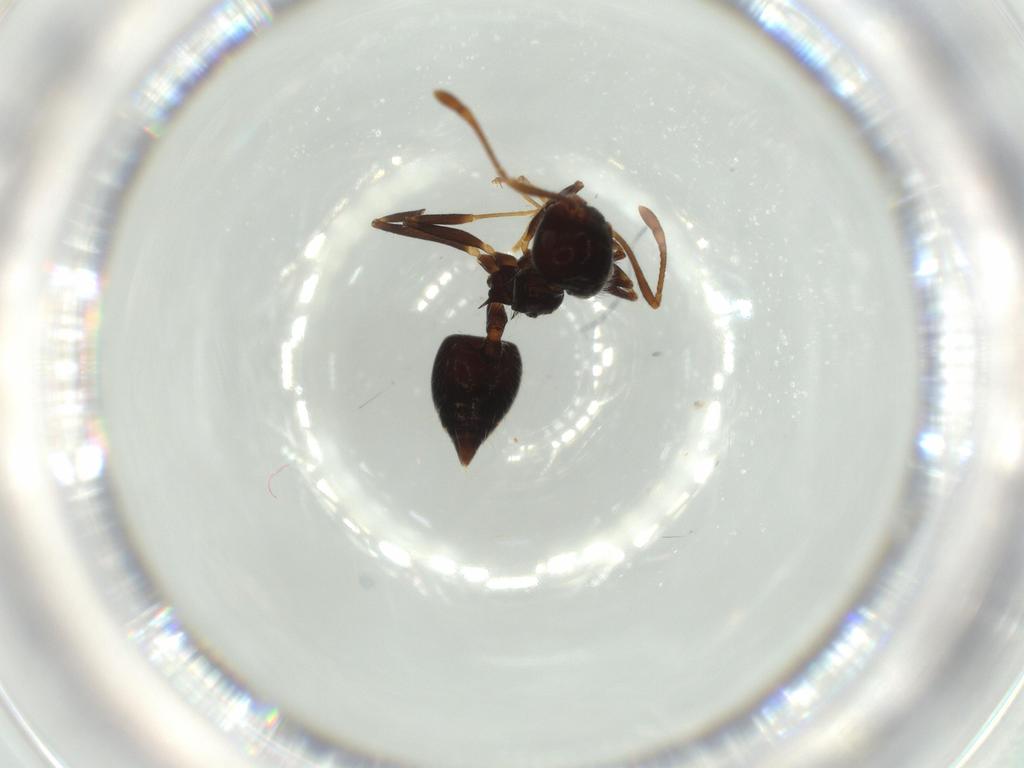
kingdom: Animalia
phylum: Arthropoda
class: Insecta
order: Hymenoptera
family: Formicidae
